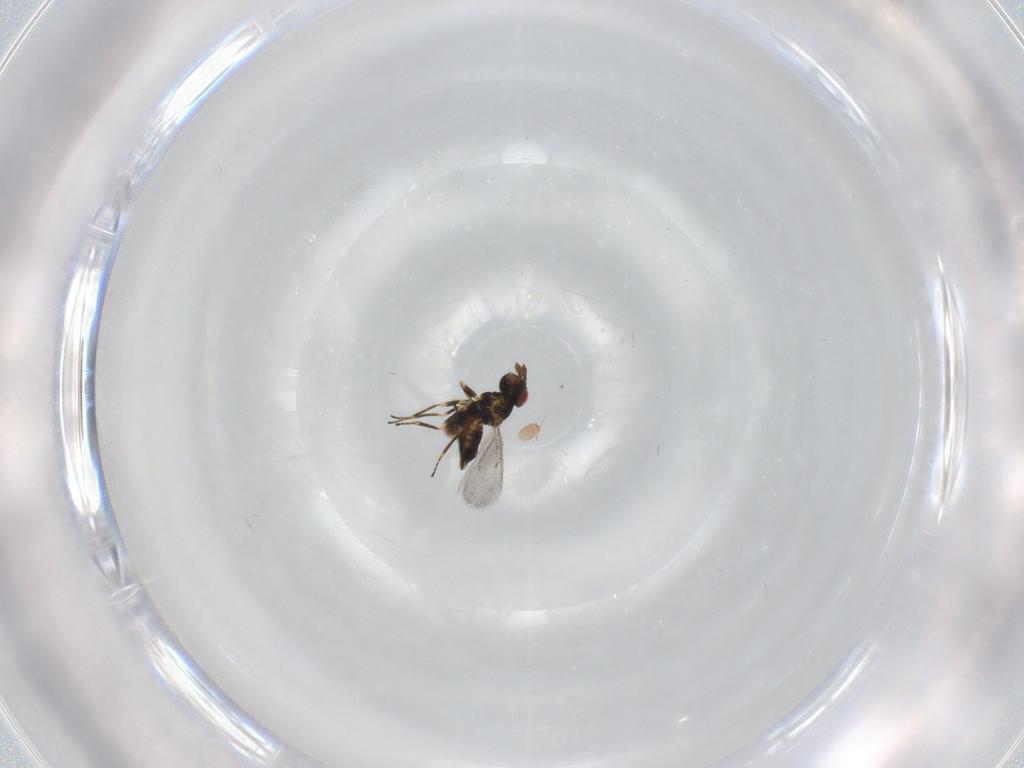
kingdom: Animalia
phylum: Arthropoda
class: Insecta
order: Hymenoptera
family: Eulophidae
